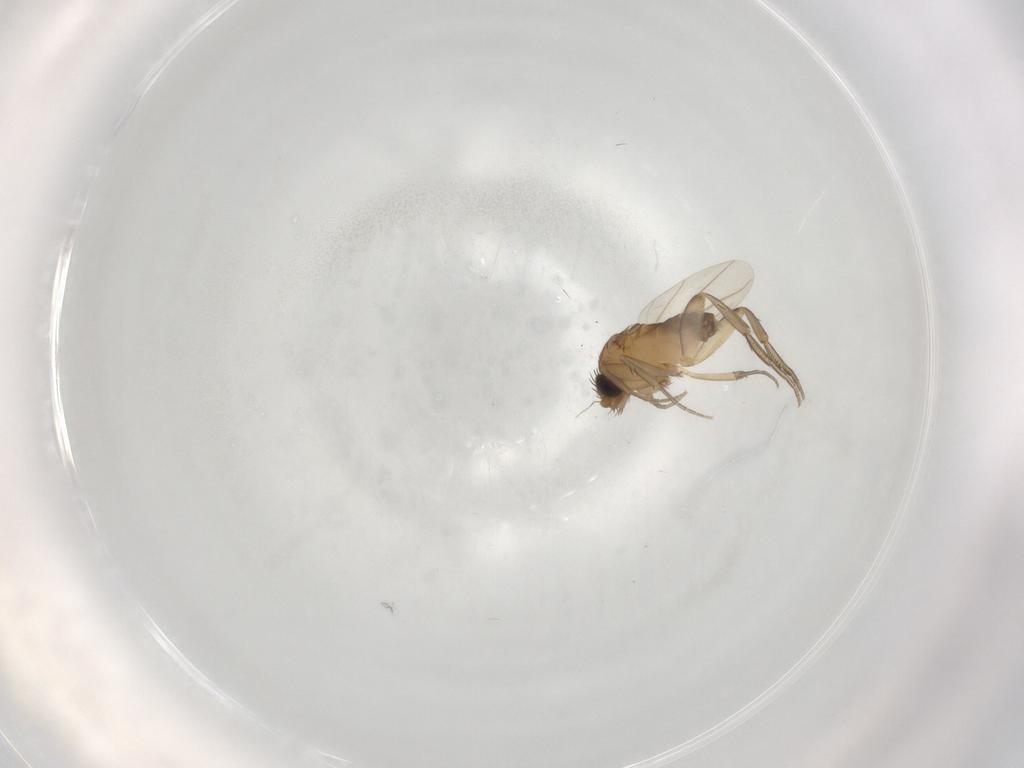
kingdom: Animalia
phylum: Arthropoda
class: Insecta
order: Diptera
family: Phoridae
